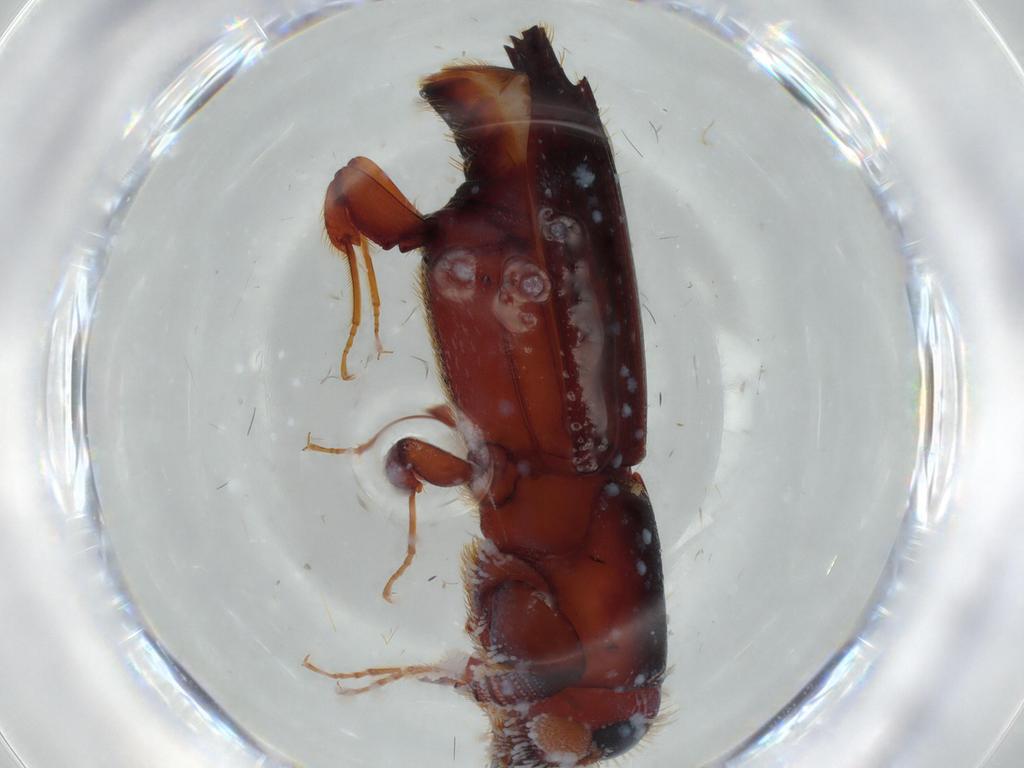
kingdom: Animalia
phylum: Arthropoda
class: Insecta
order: Coleoptera
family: Curculionidae
